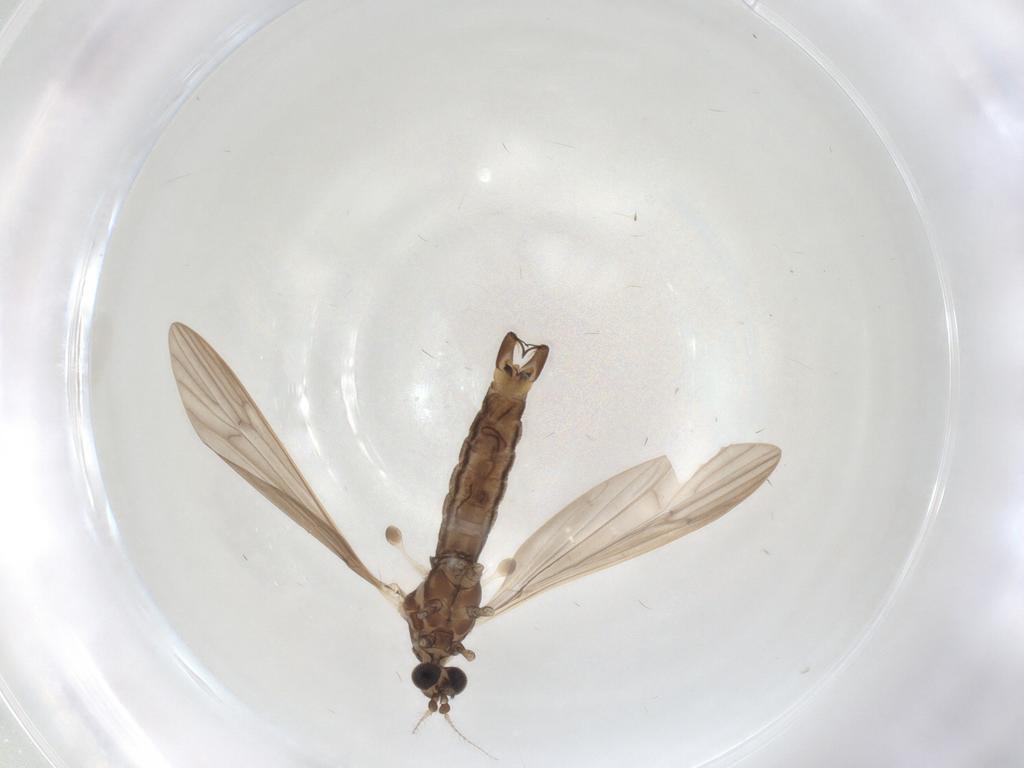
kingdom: Animalia
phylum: Arthropoda
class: Insecta
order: Diptera
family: Limoniidae
